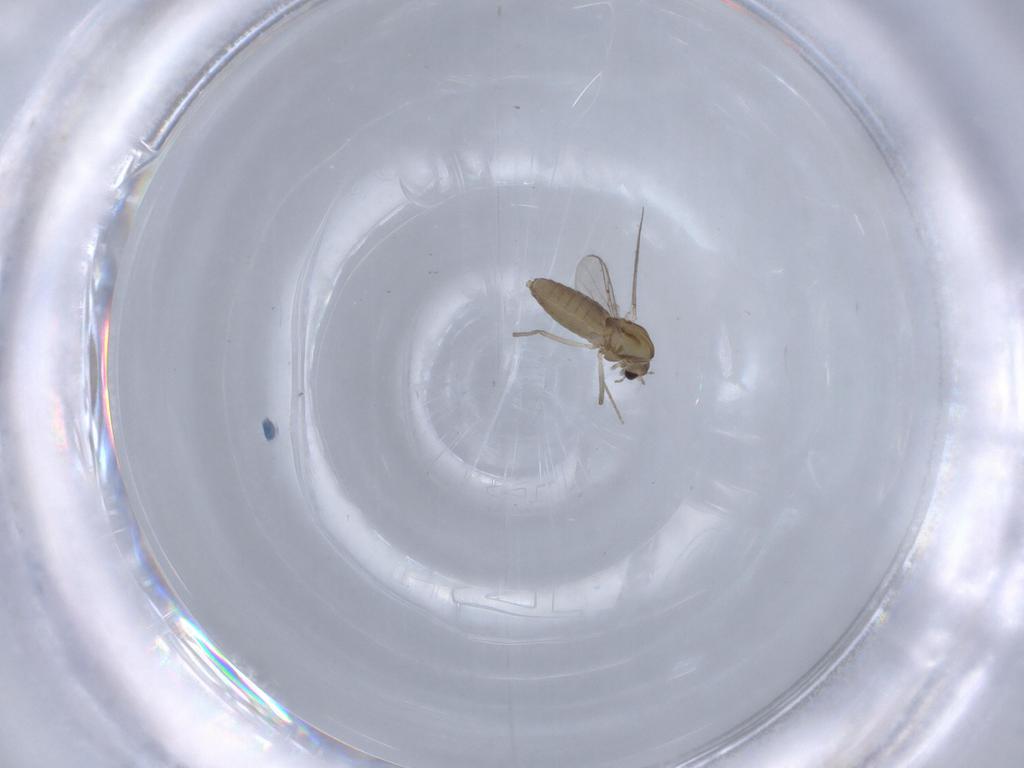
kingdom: Animalia
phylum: Arthropoda
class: Insecta
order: Diptera
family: Chironomidae
